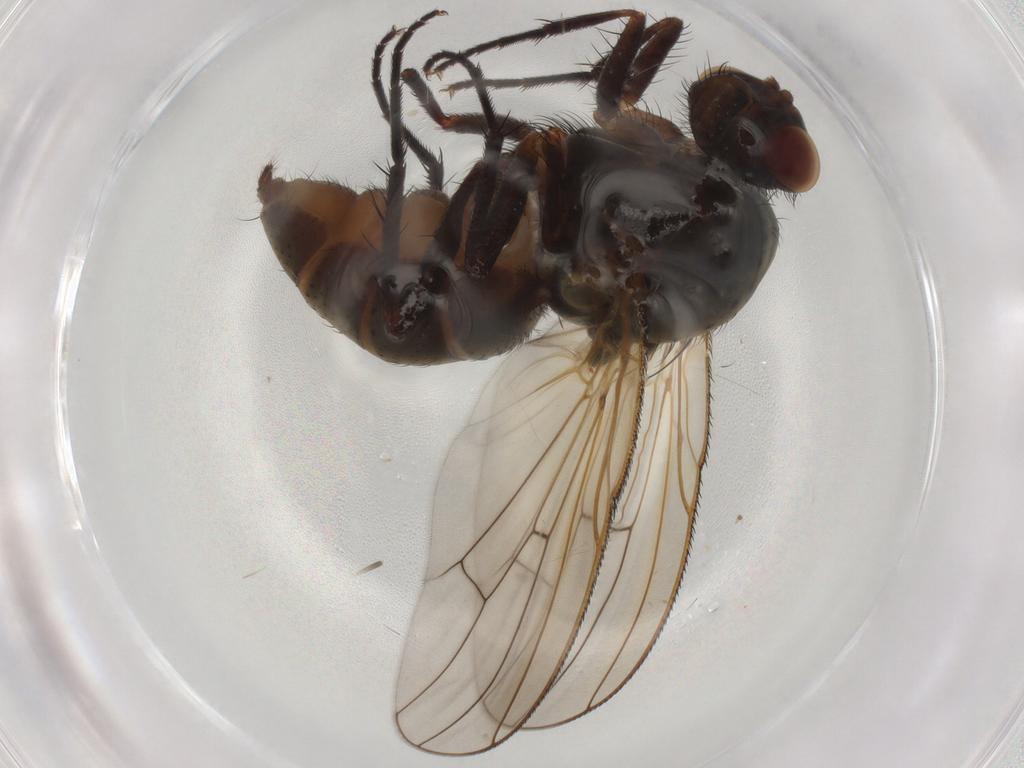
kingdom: Animalia
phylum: Arthropoda
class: Insecta
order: Diptera
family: Anthomyiidae
